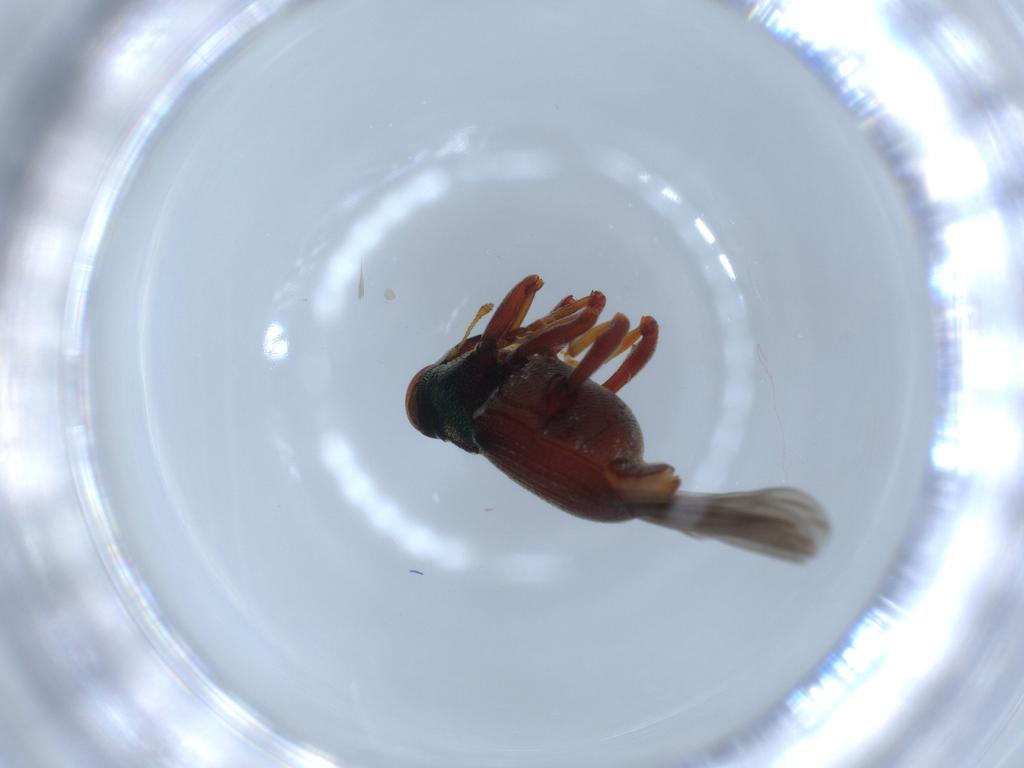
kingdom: Animalia
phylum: Arthropoda
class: Insecta
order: Coleoptera
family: Curculionidae
